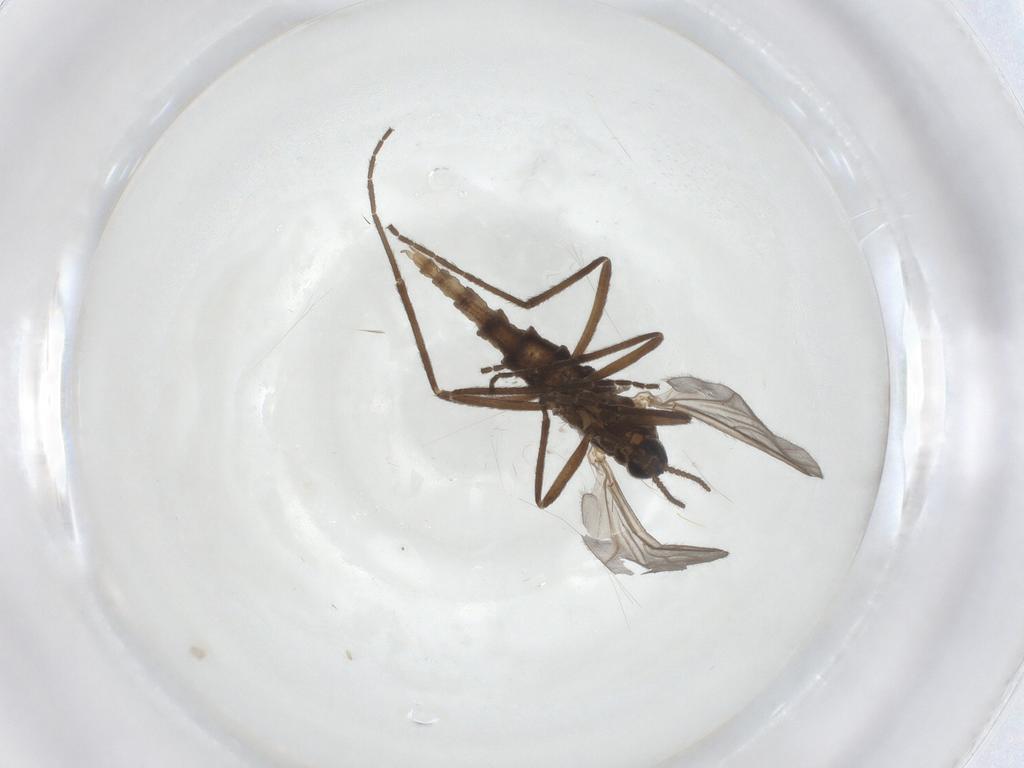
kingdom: Animalia
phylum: Arthropoda
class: Insecta
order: Diptera
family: Cecidomyiidae
